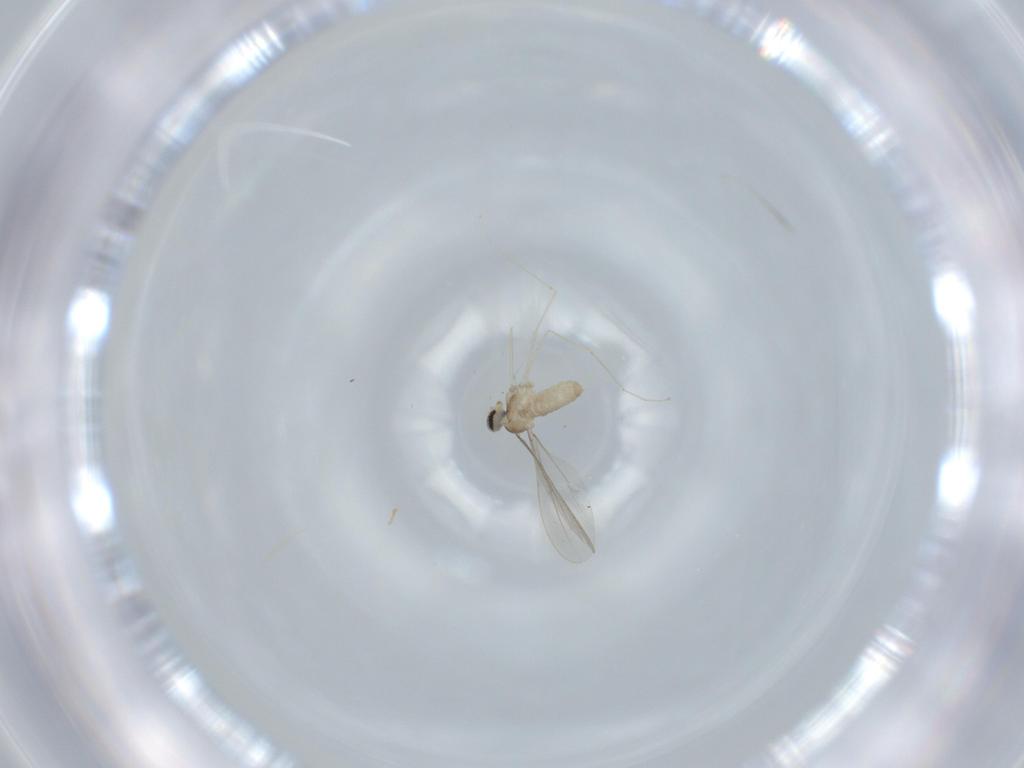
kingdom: Animalia
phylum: Arthropoda
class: Insecta
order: Diptera
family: Cecidomyiidae
